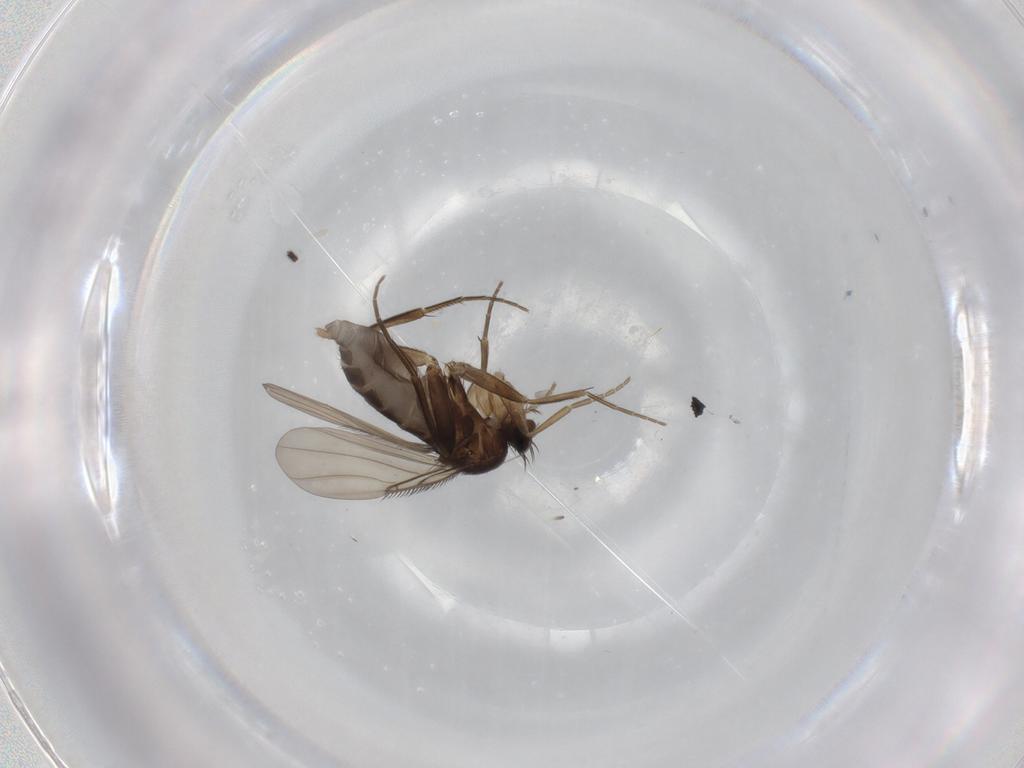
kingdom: Animalia
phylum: Arthropoda
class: Insecta
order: Diptera
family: Phoridae
